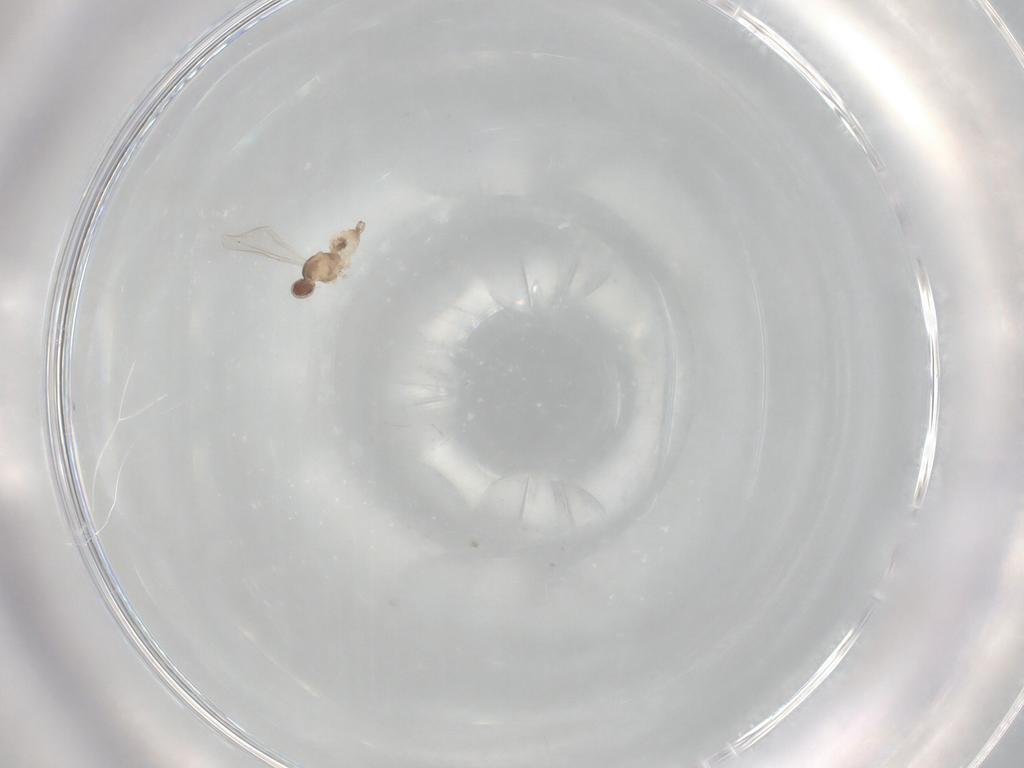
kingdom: Animalia
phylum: Arthropoda
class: Insecta
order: Diptera
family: Cecidomyiidae
